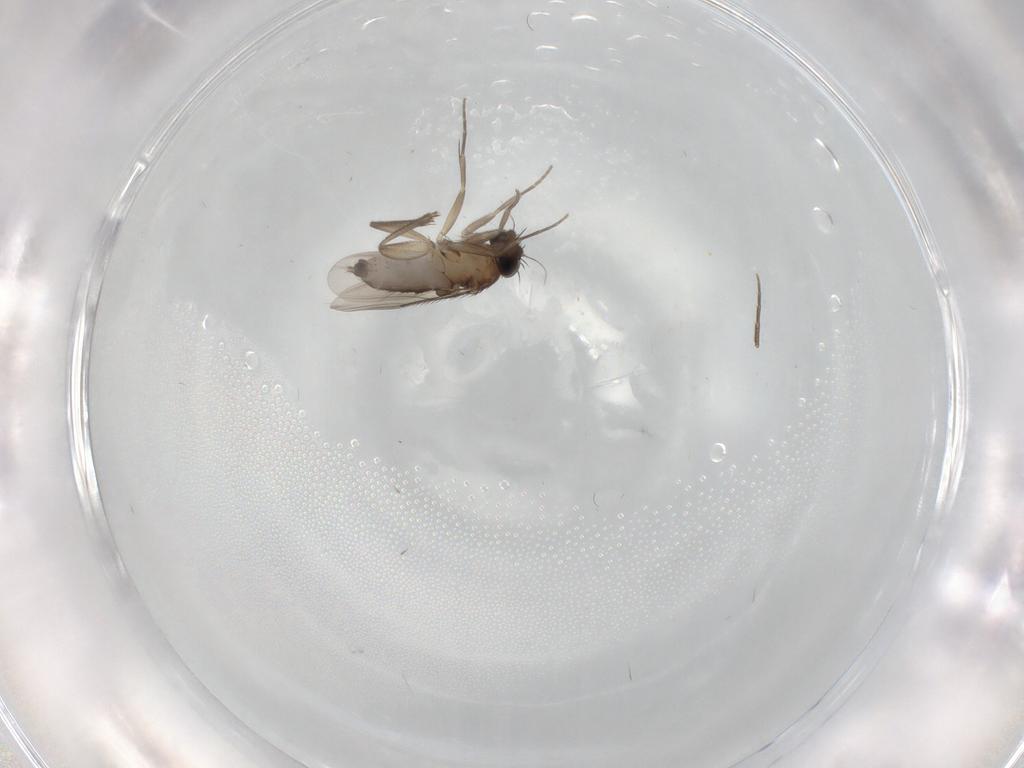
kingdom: Animalia
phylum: Arthropoda
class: Insecta
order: Diptera
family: Phoridae
